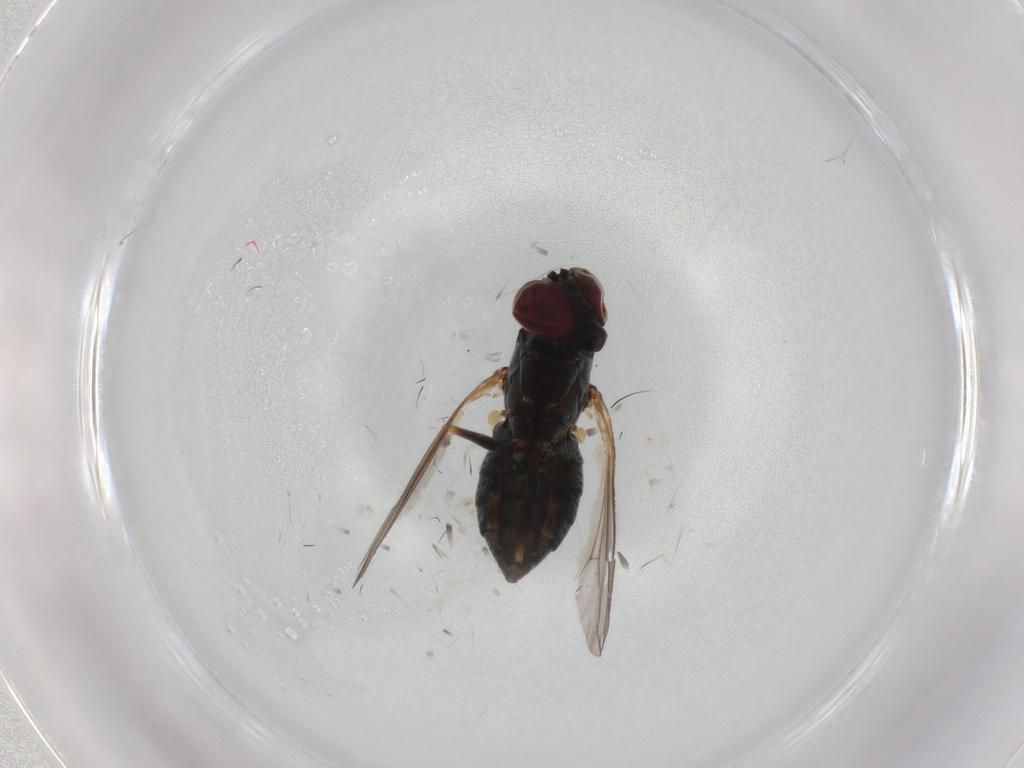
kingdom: Animalia
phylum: Arthropoda
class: Insecta
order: Diptera
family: Dolichopodidae
